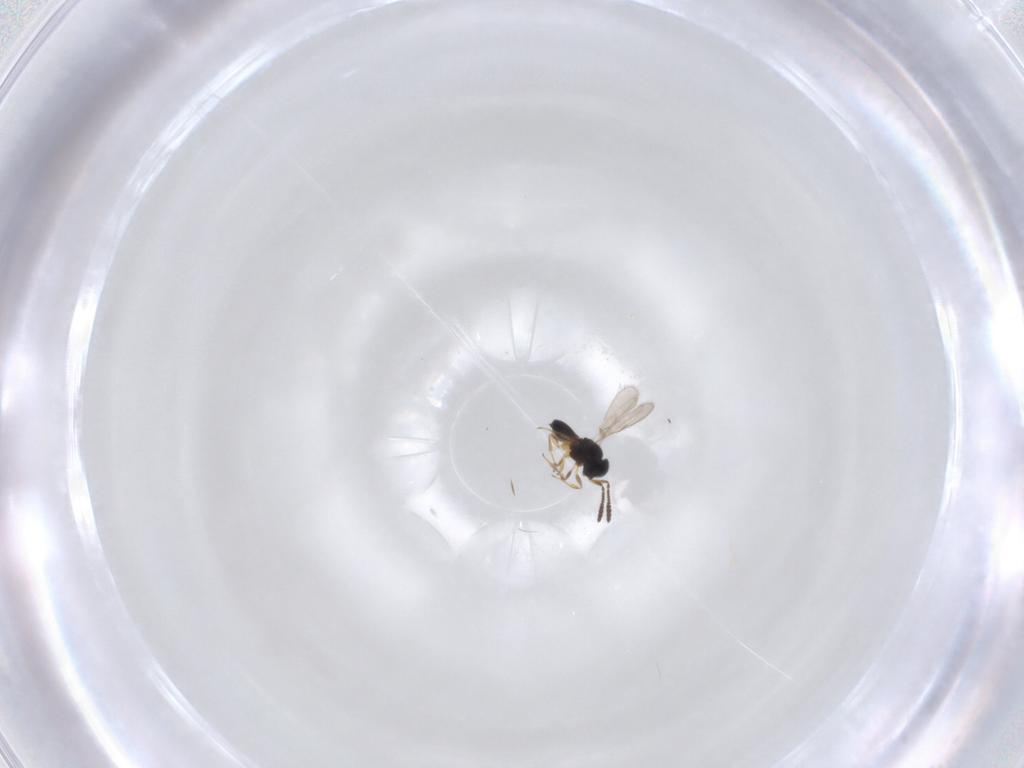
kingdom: Animalia
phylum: Arthropoda
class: Insecta
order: Hymenoptera
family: Scelionidae
